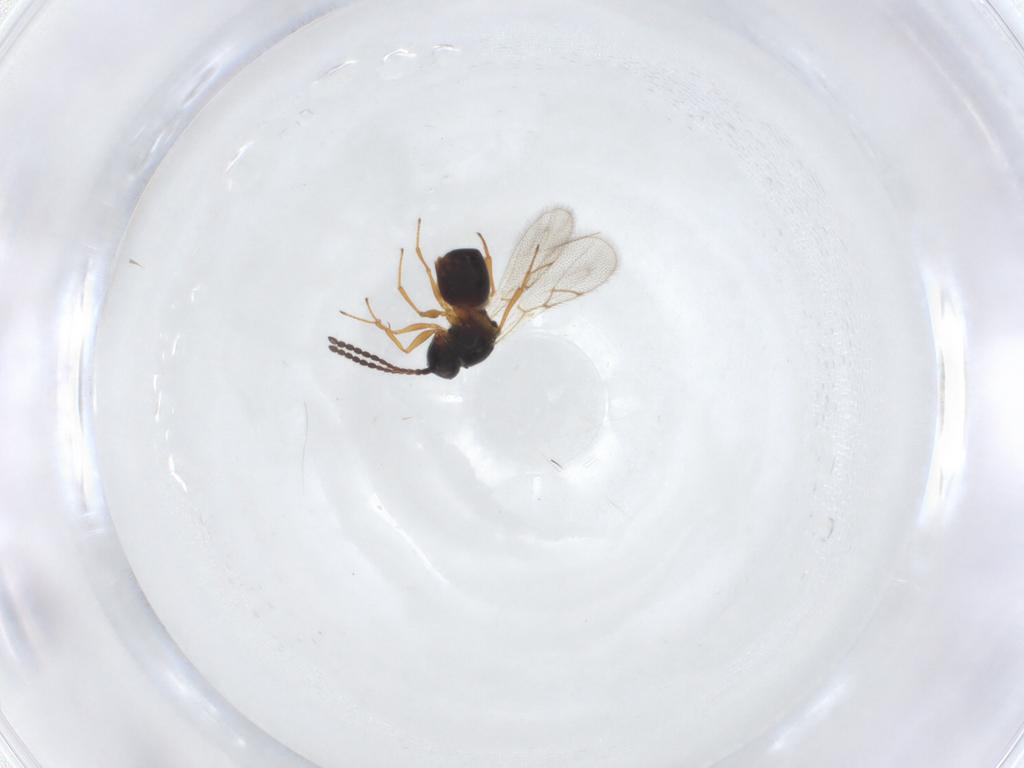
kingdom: Animalia
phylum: Arthropoda
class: Insecta
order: Hymenoptera
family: Figitidae
